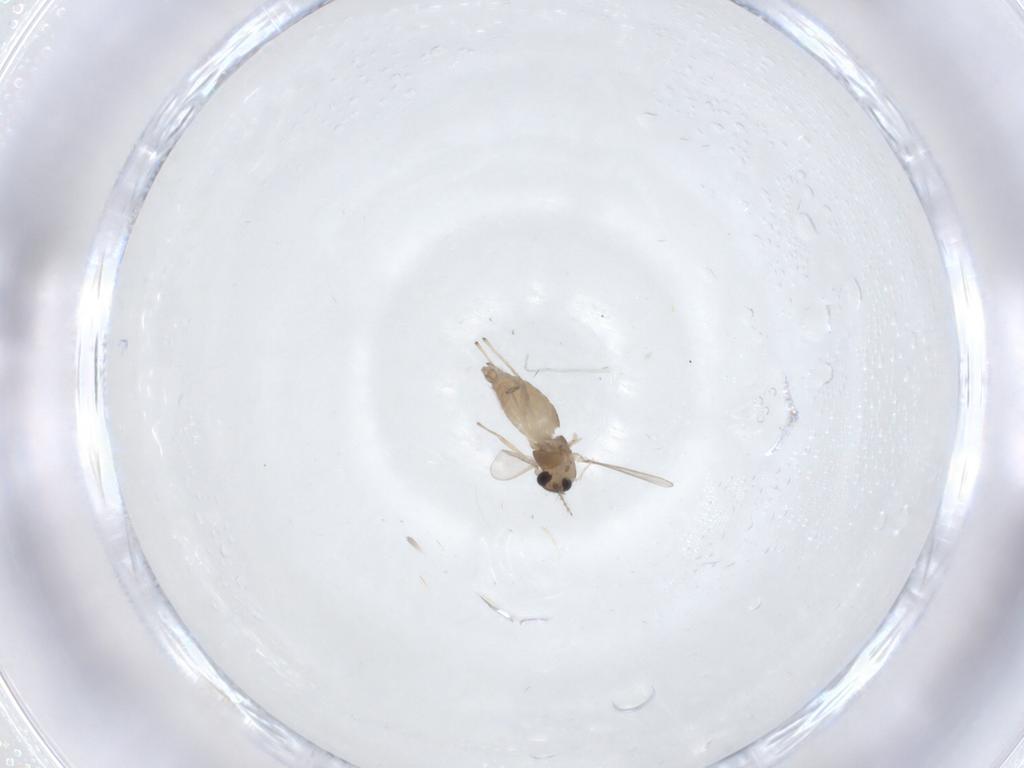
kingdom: Animalia
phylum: Arthropoda
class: Insecta
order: Diptera
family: Chironomidae
